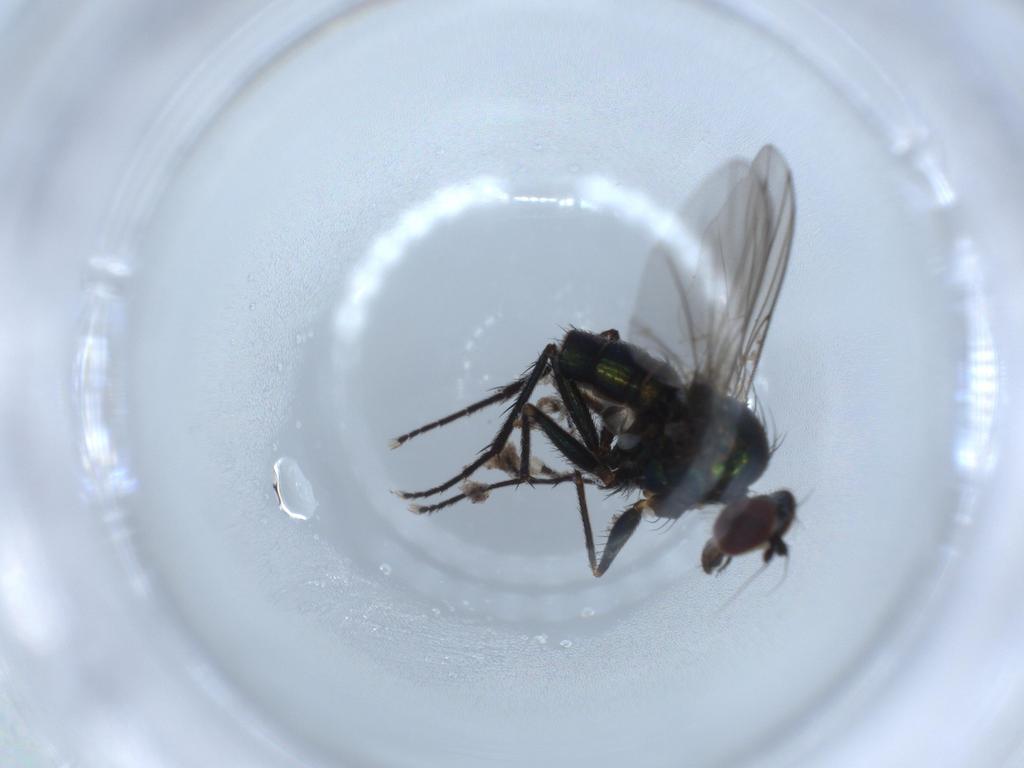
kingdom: Animalia
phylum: Arthropoda
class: Insecta
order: Diptera
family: Dolichopodidae
